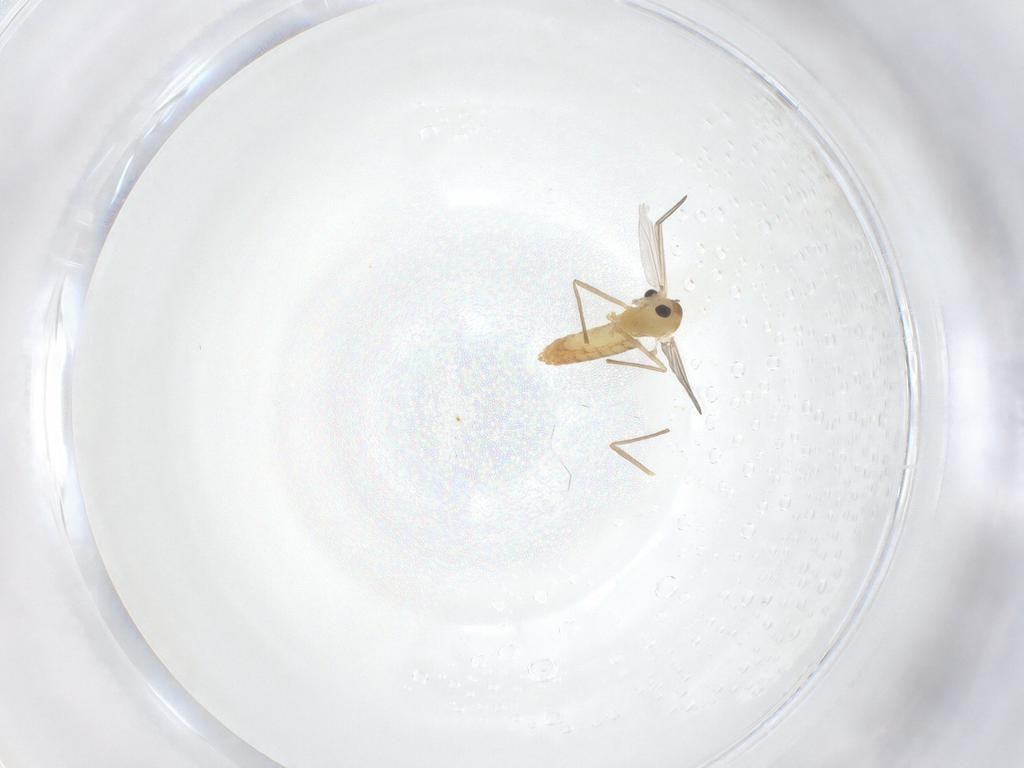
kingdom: Animalia
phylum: Arthropoda
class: Insecta
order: Diptera
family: Chironomidae
